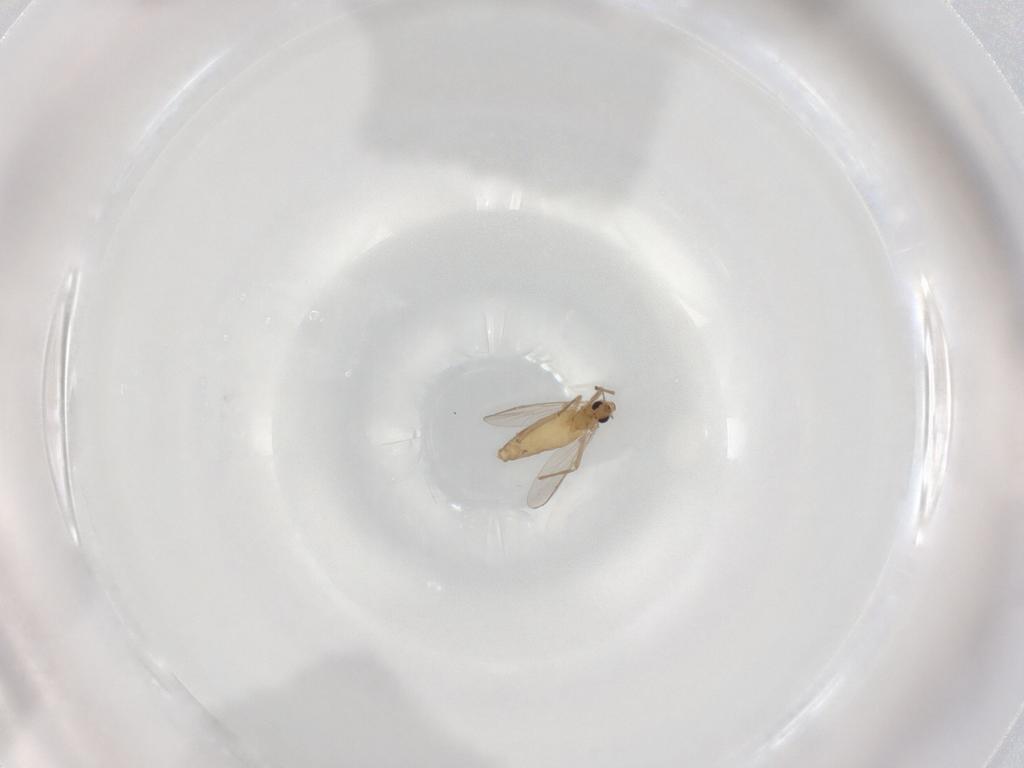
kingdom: Animalia
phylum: Arthropoda
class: Insecta
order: Diptera
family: Chironomidae
